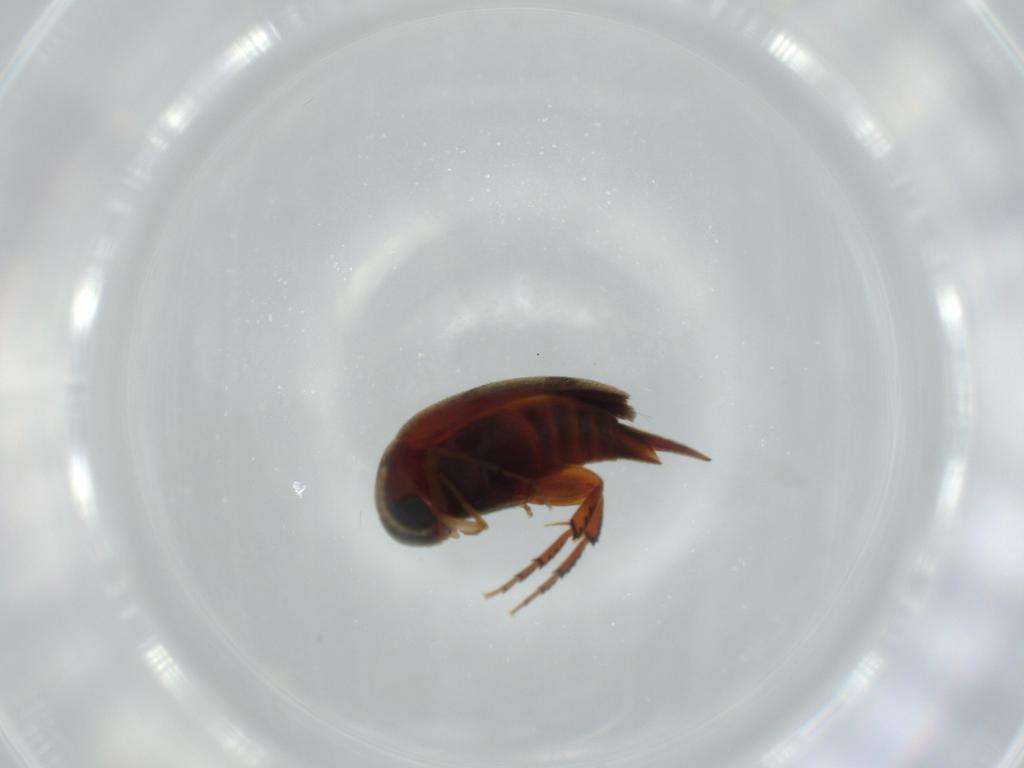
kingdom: Animalia
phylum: Arthropoda
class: Insecta
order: Coleoptera
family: Mordellidae
